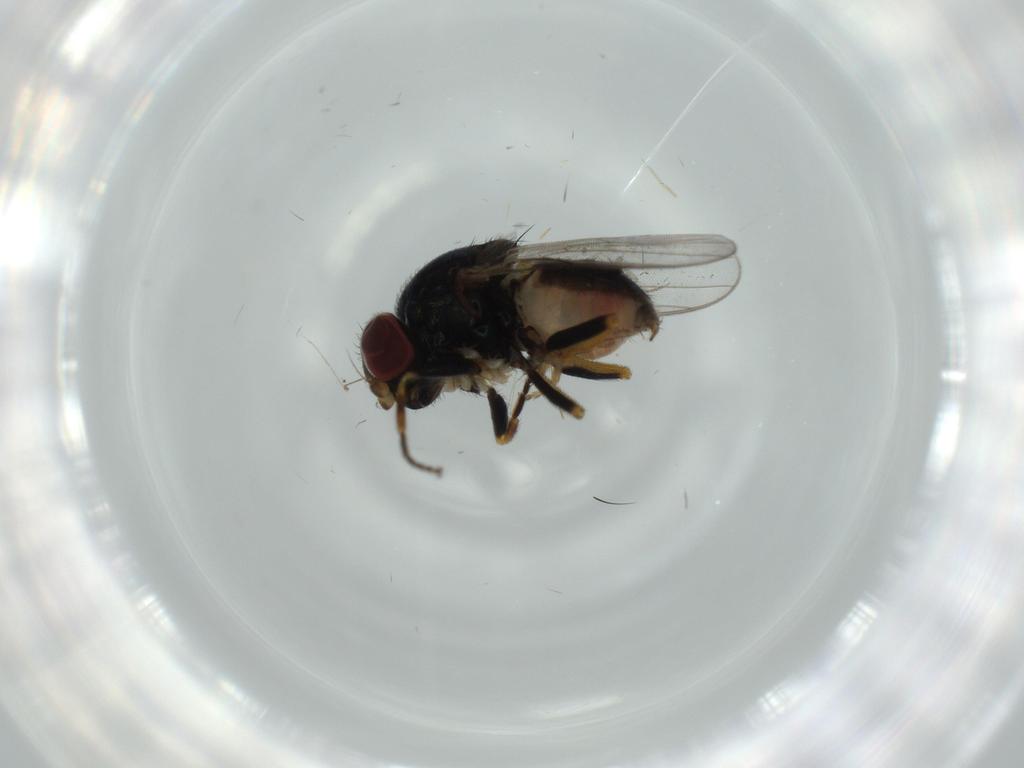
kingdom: Animalia
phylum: Arthropoda
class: Insecta
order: Diptera
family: Chloropidae
